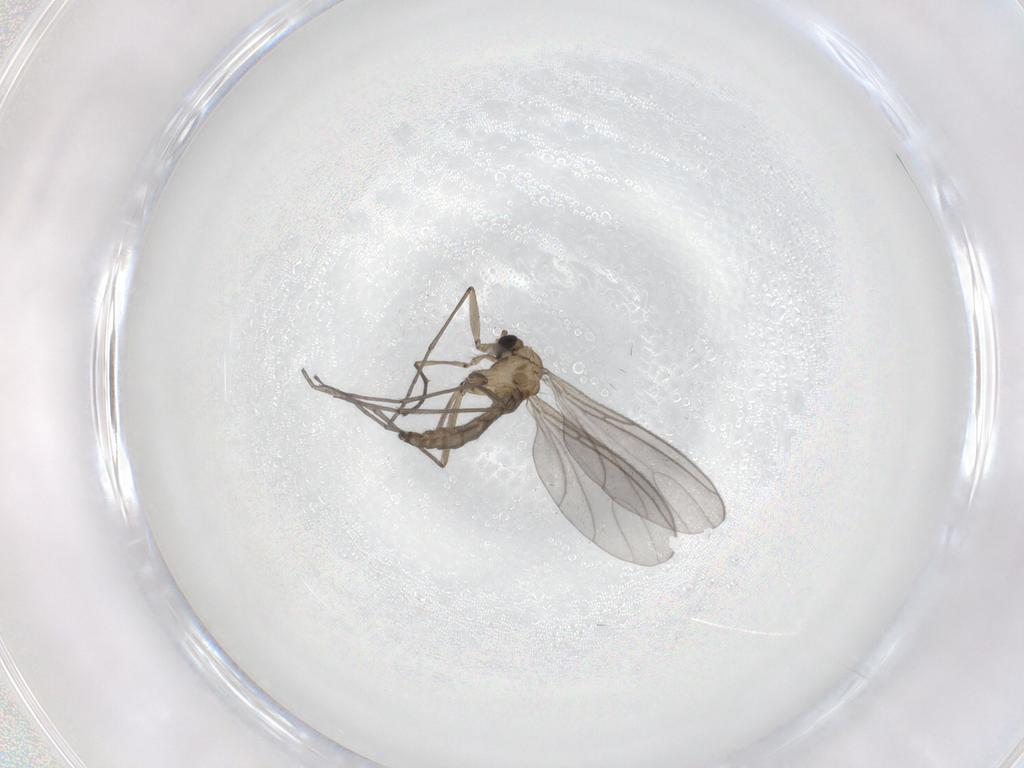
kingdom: Animalia
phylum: Arthropoda
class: Insecta
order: Diptera
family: Sciaridae
